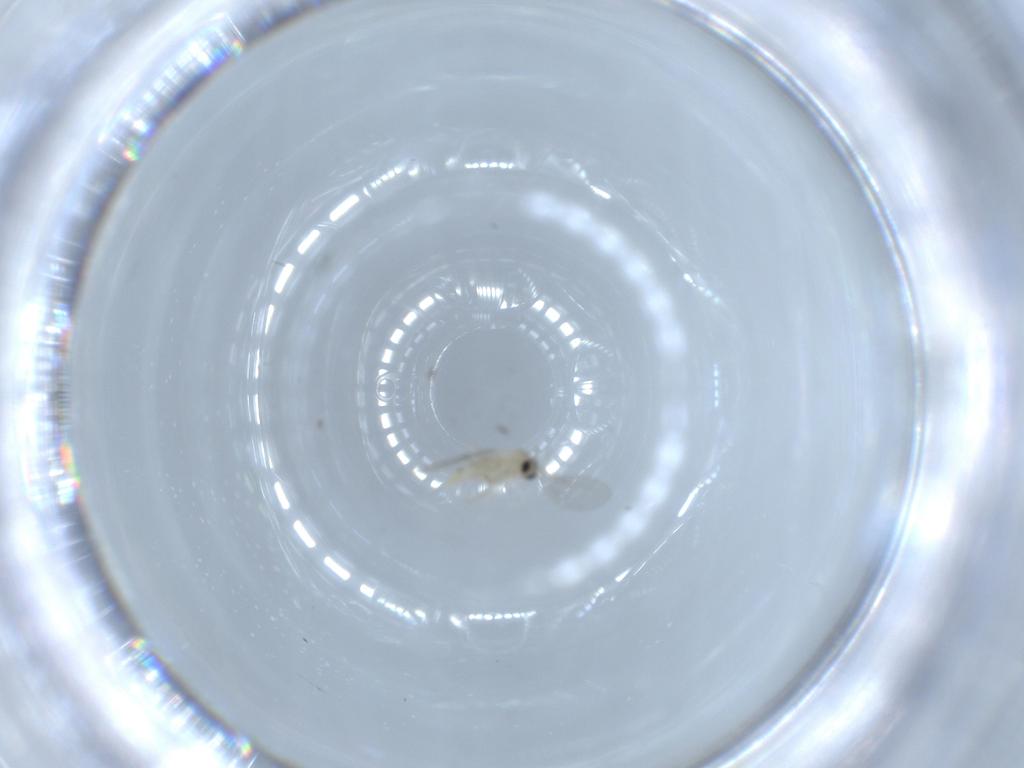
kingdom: Animalia
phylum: Arthropoda
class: Insecta
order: Diptera
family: Cecidomyiidae
